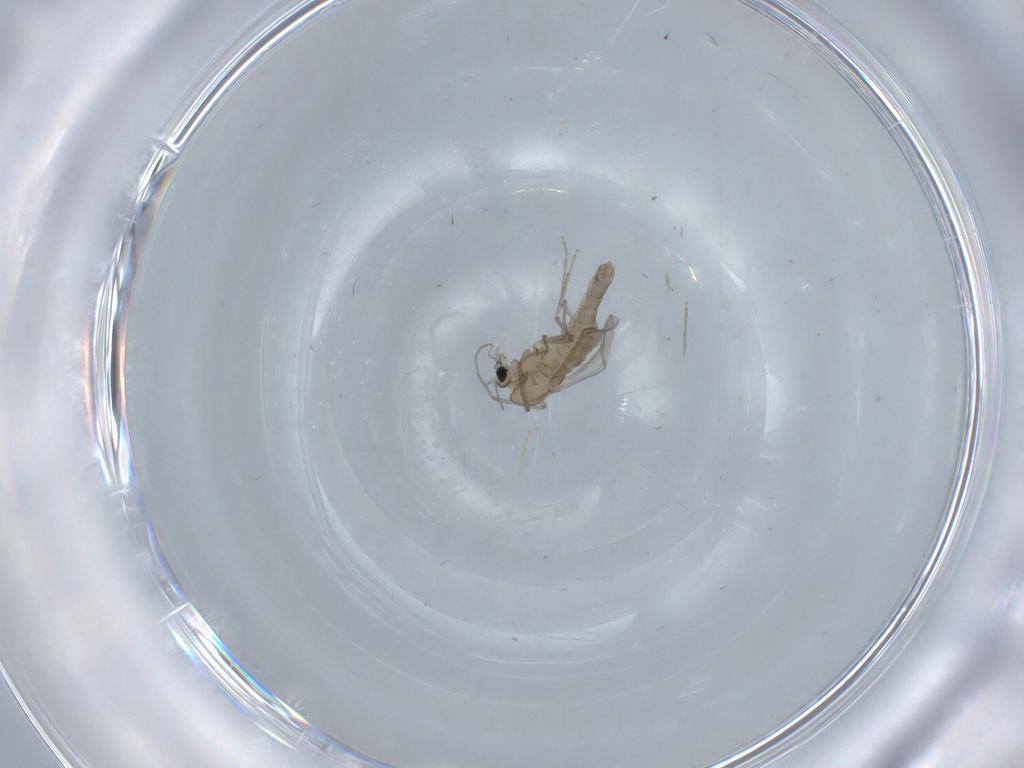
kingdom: Animalia
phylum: Arthropoda
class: Insecta
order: Diptera
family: Chironomidae
